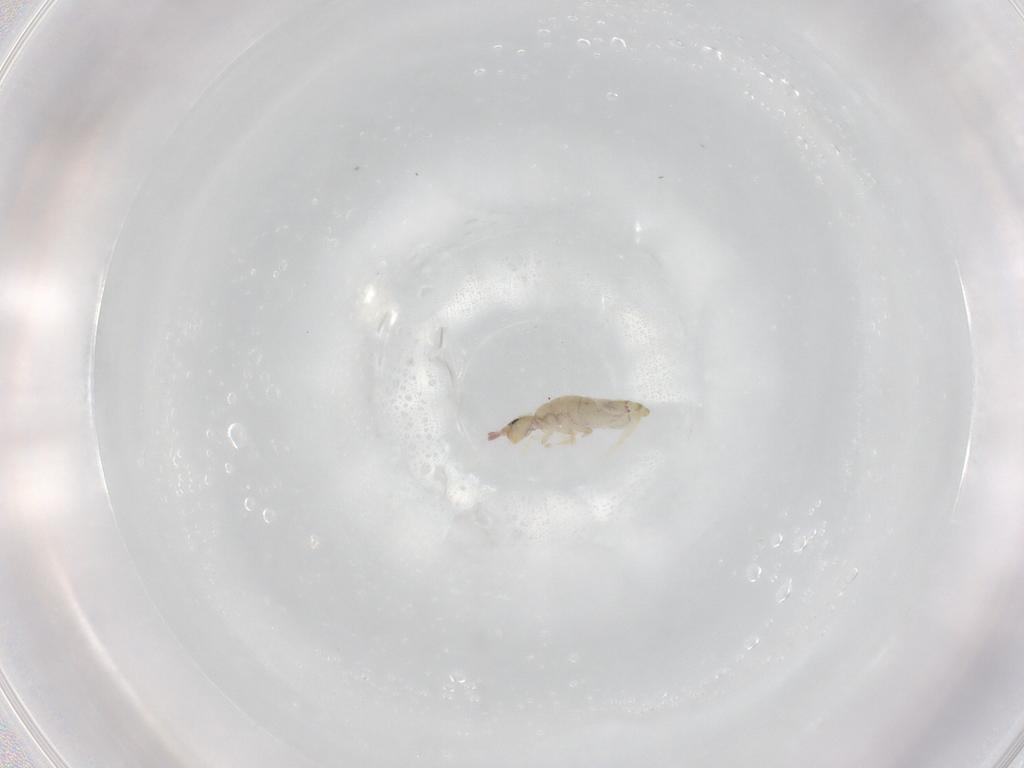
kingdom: Animalia
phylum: Arthropoda
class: Collembola
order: Entomobryomorpha
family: Entomobryidae
